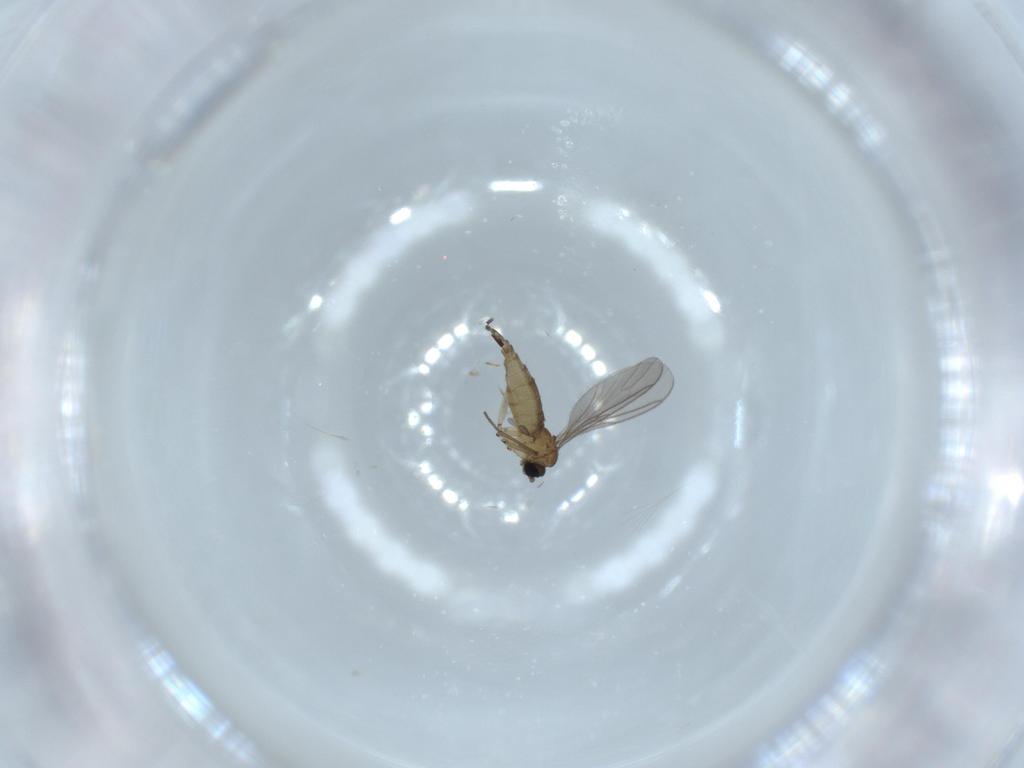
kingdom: Animalia
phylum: Arthropoda
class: Insecta
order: Diptera
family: Sciaridae
